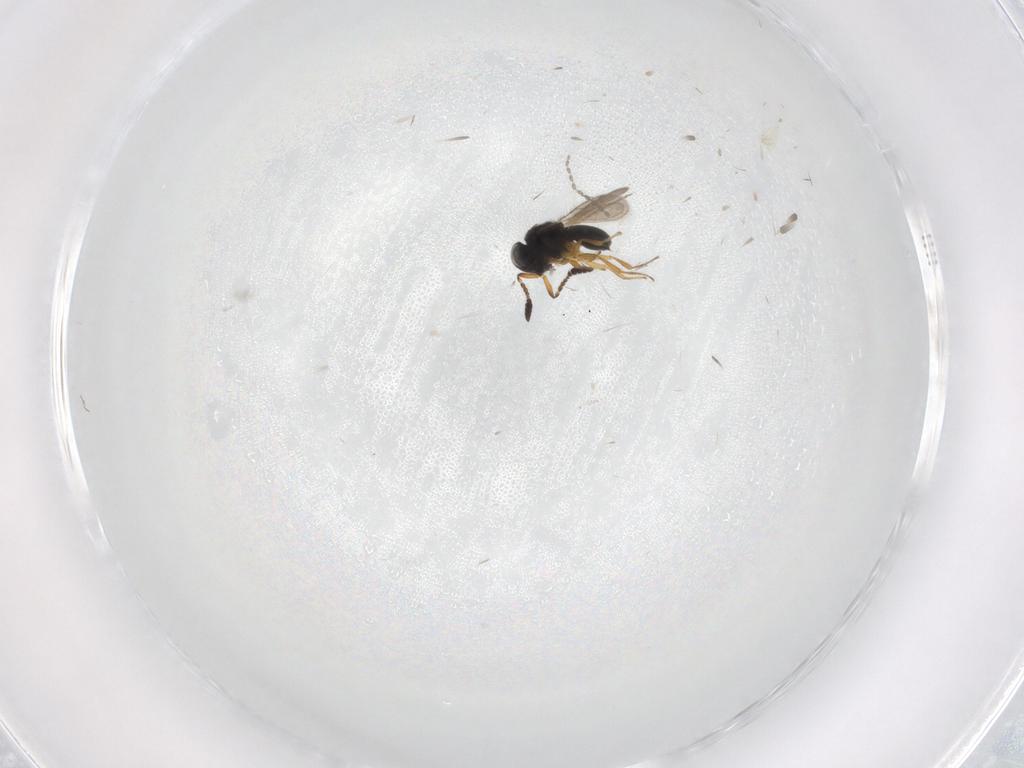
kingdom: Animalia
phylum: Arthropoda
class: Insecta
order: Hymenoptera
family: Scelionidae
